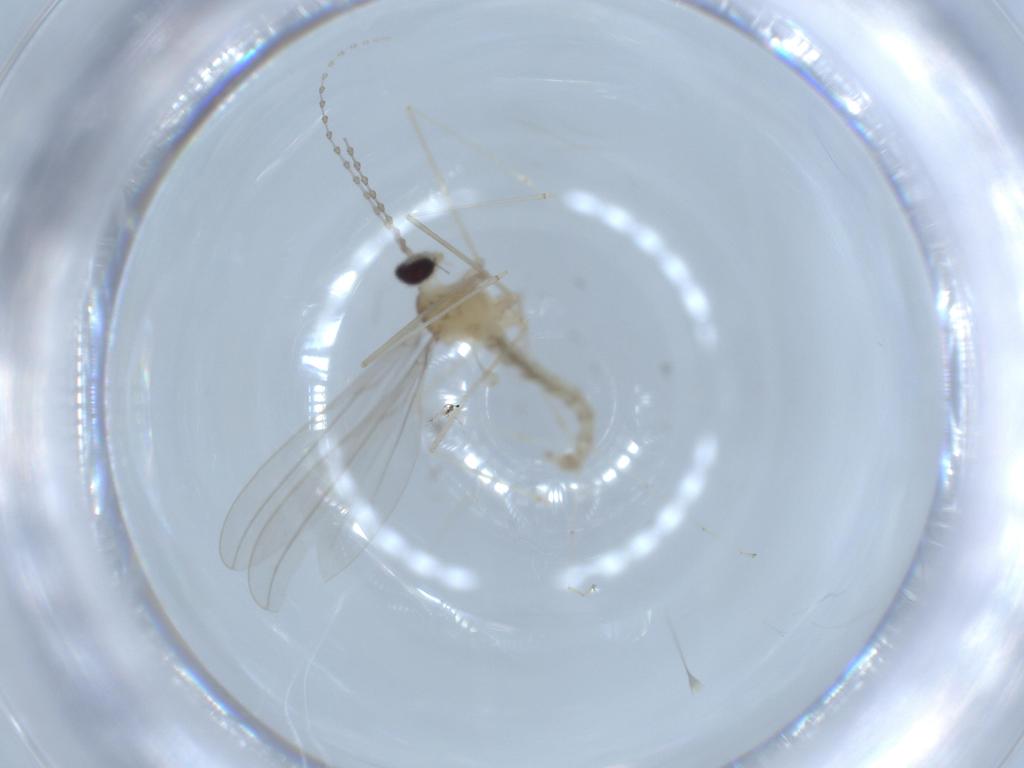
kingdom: Animalia
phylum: Arthropoda
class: Insecta
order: Diptera
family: Cecidomyiidae
